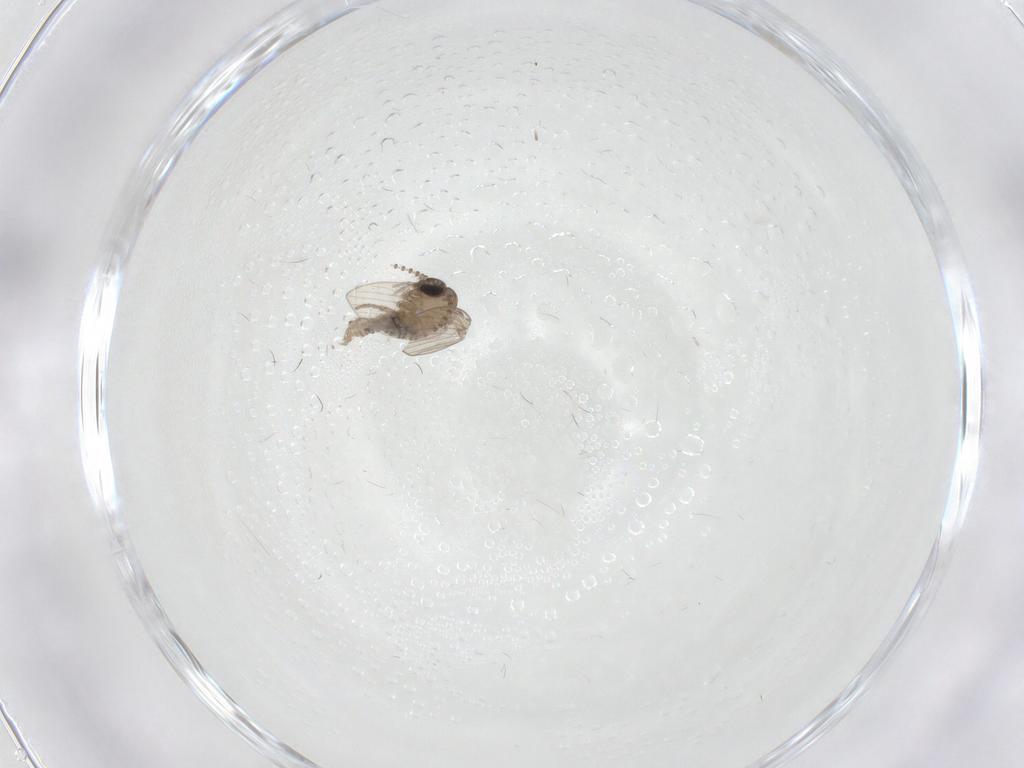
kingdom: Animalia
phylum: Arthropoda
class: Insecta
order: Diptera
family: Psychodidae
